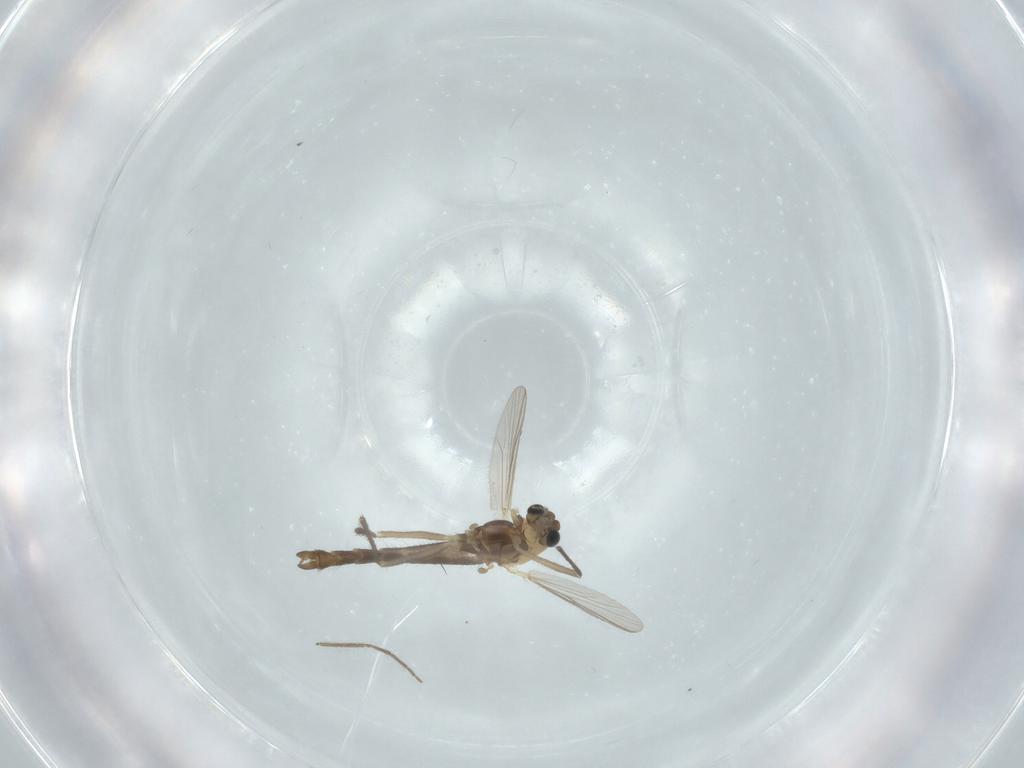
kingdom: Animalia
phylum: Arthropoda
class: Insecta
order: Diptera
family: Chironomidae
